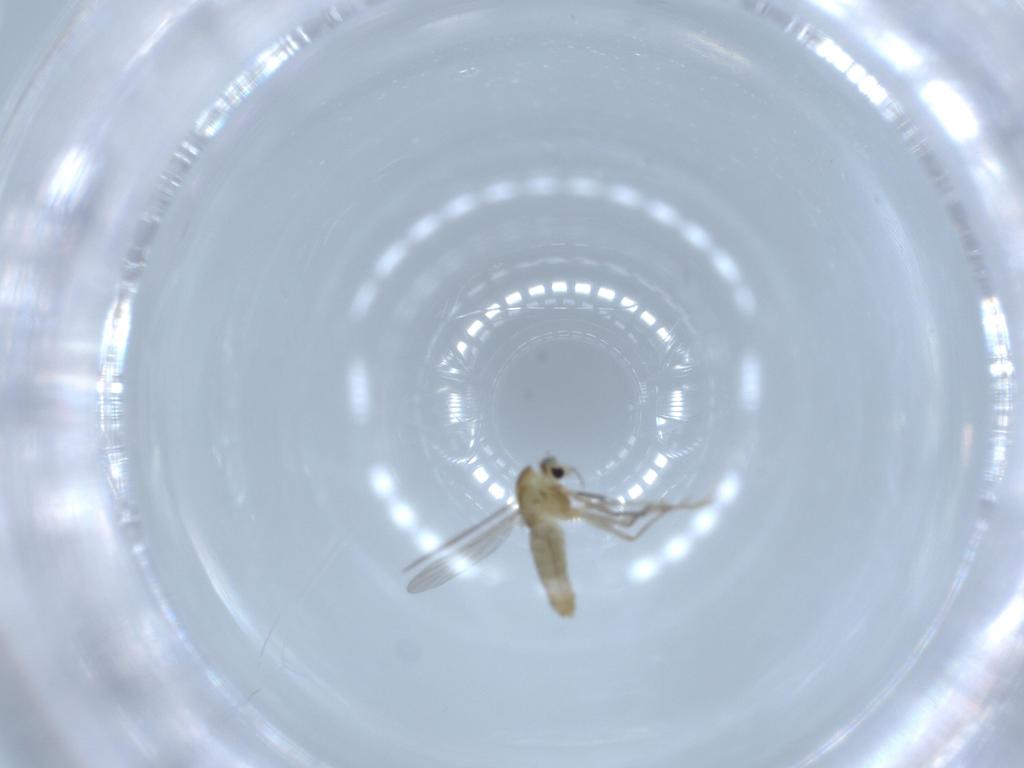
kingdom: Animalia
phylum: Arthropoda
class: Insecta
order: Diptera
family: Chironomidae
